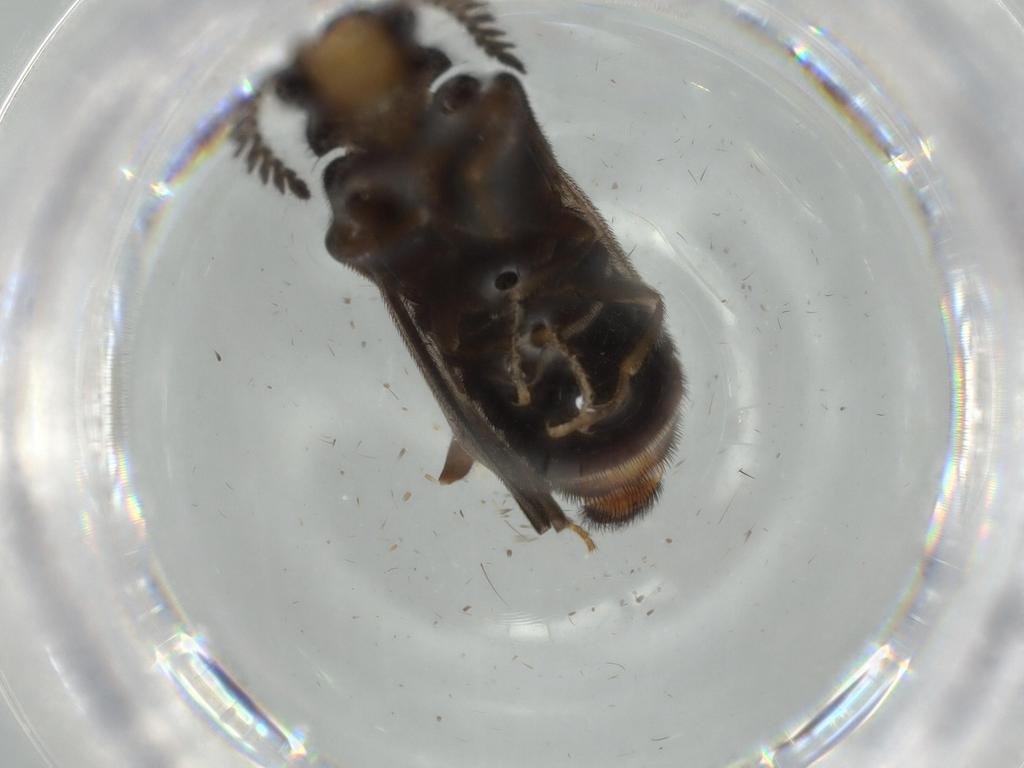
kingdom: Animalia
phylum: Arthropoda
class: Insecta
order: Coleoptera
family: Phengodidae
